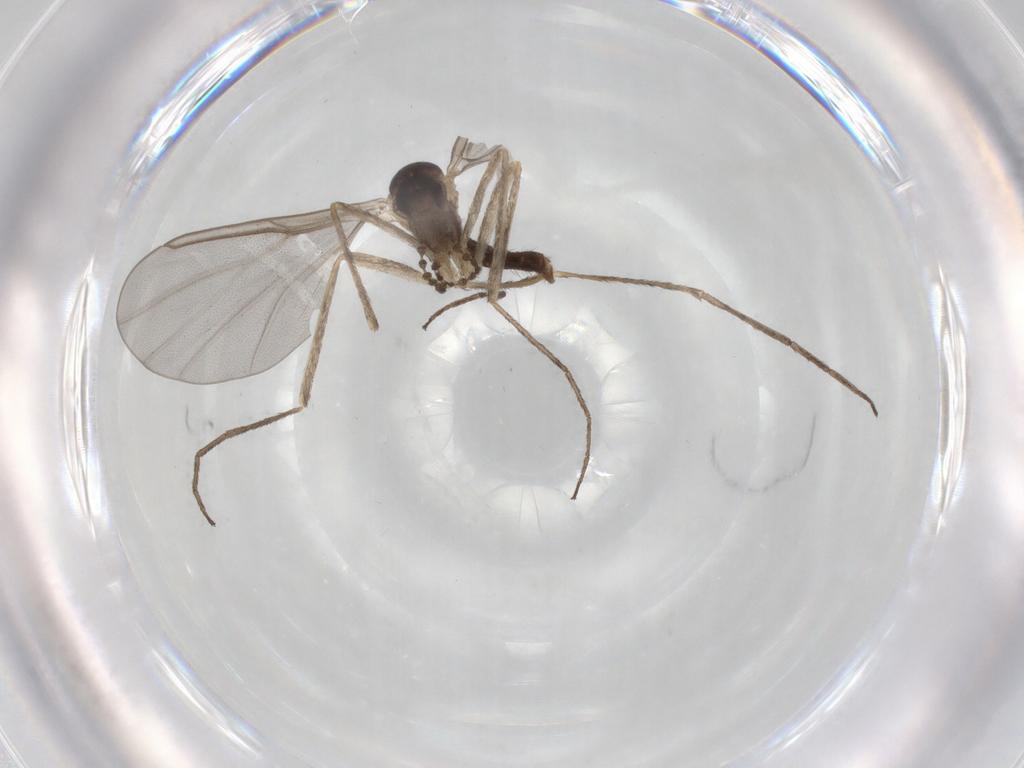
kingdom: Animalia
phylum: Arthropoda
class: Insecta
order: Diptera
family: Cecidomyiidae
